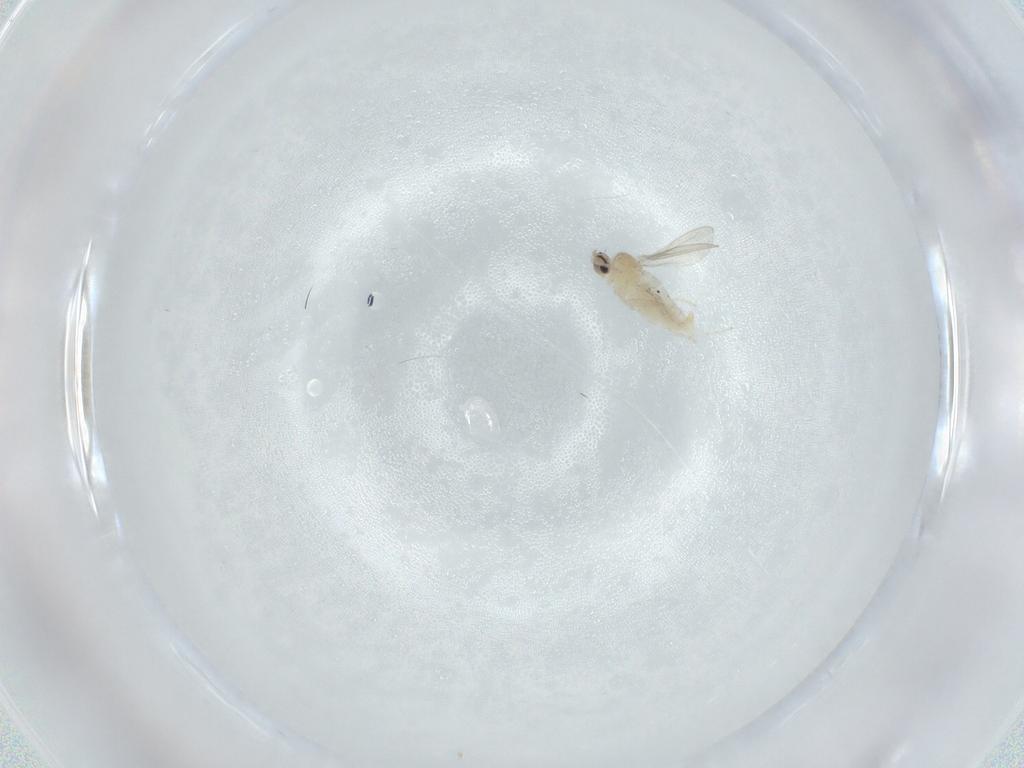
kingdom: Animalia
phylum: Arthropoda
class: Insecta
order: Diptera
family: Cecidomyiidae
